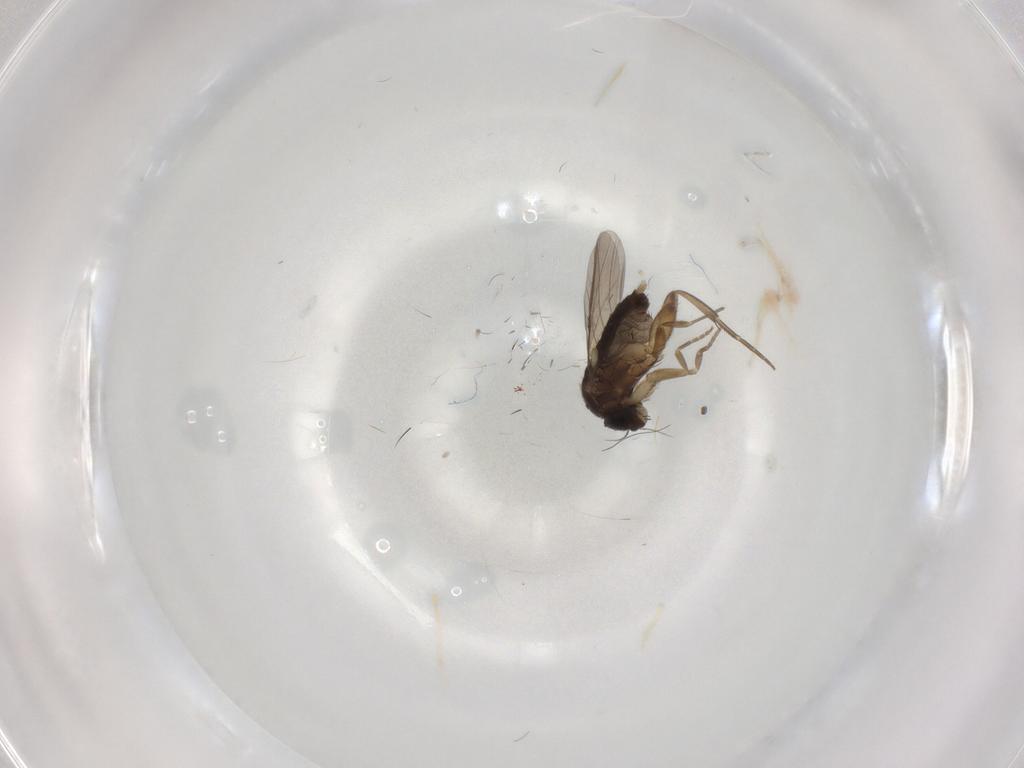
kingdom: Animalia
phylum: Arthropoda
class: Insecta
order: Diptera
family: Phoridae
